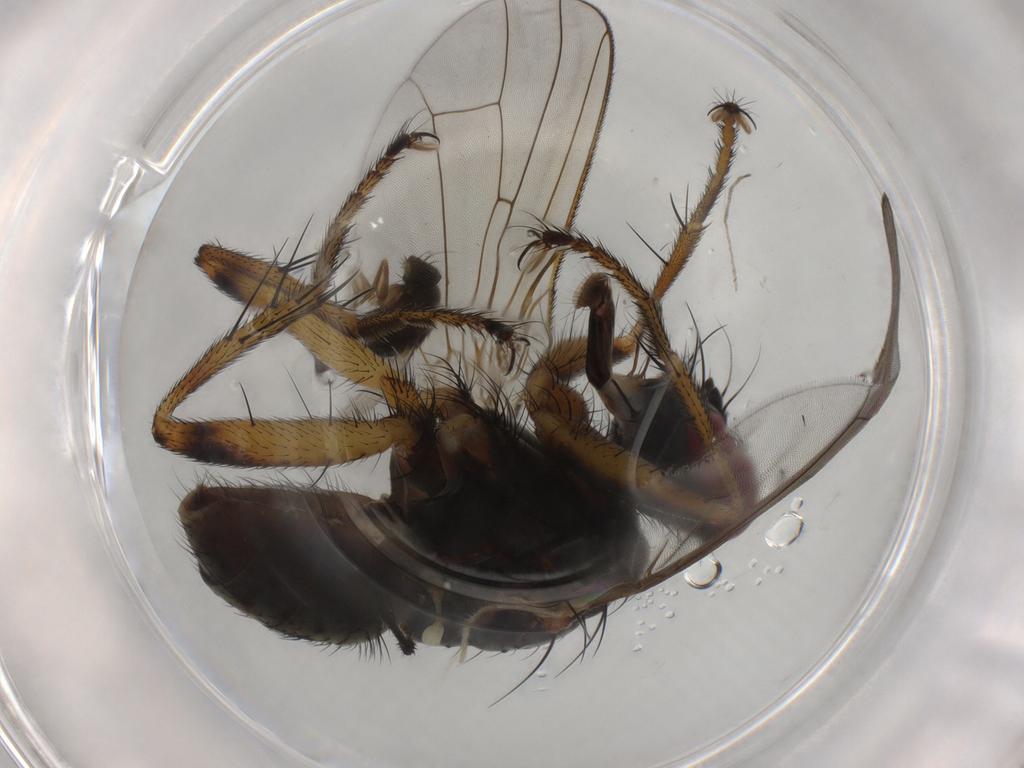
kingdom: Animalia
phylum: Arthropoda
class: Insecta
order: Diptera
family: Muscidae
